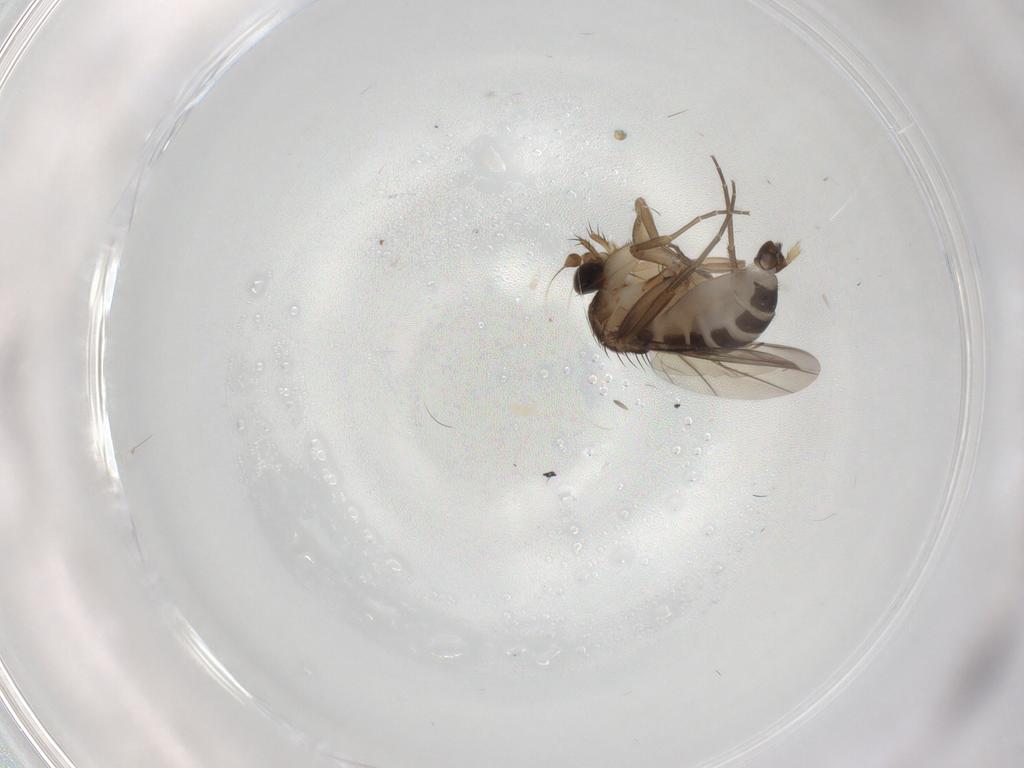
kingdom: Animalia
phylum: Arthropoda
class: Insecta
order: Diptera
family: Phoridae
